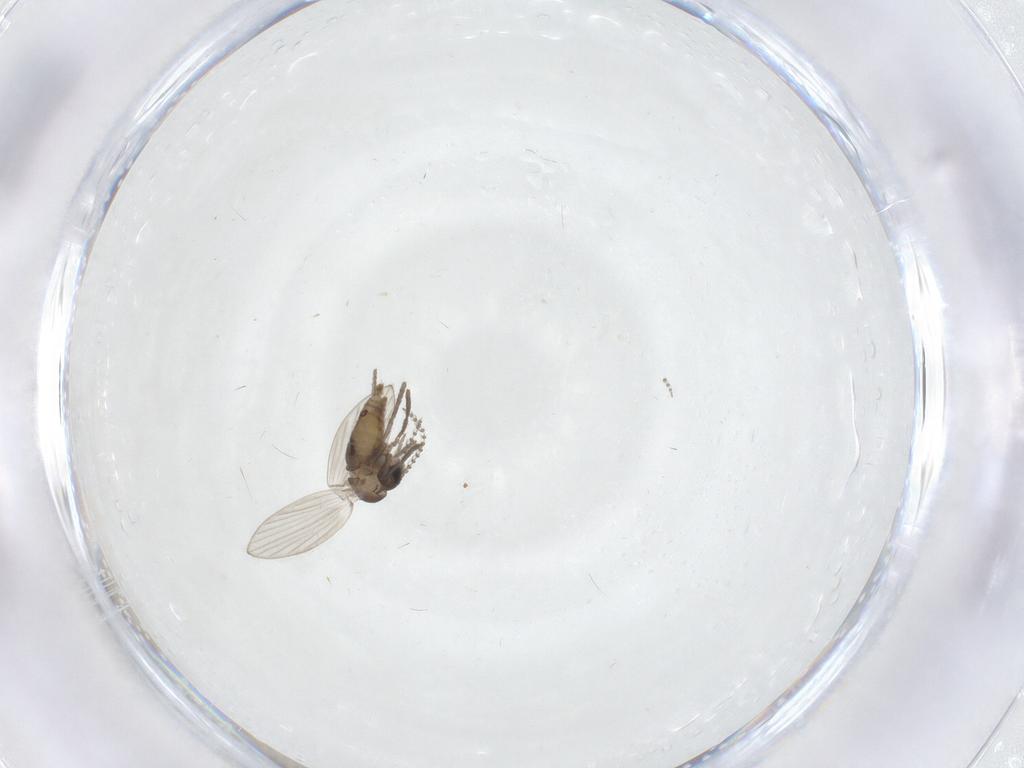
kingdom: Animalia
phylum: Arthropoda
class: Insecta
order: Diptera
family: Psychodidae
